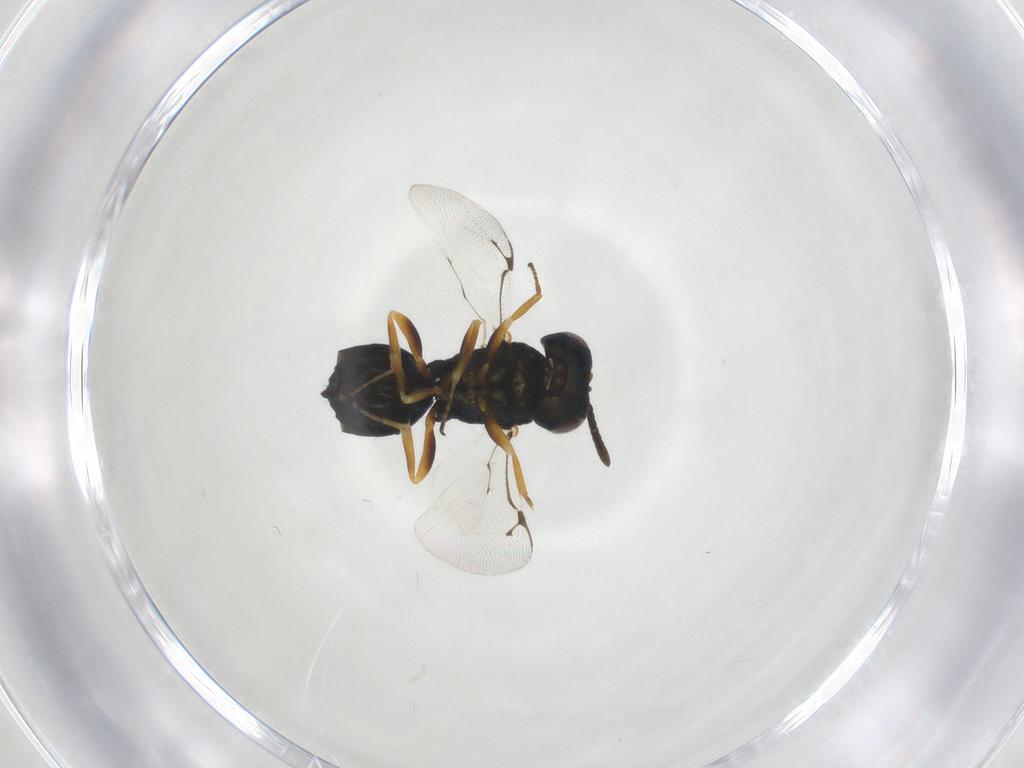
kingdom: Animalia
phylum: Arthropoda
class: Insecta
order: Hymenoptera
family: Pteromalidae
